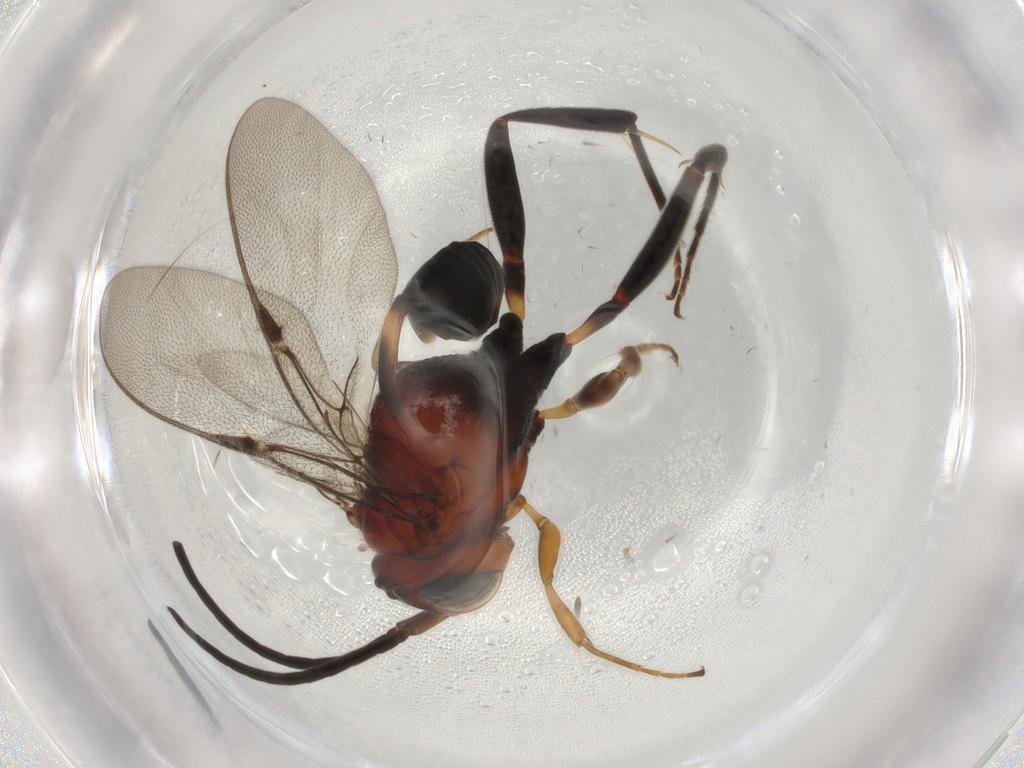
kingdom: Animalia
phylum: Arthropoda
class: Insecta
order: Hymenoptera
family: Evaniidae
